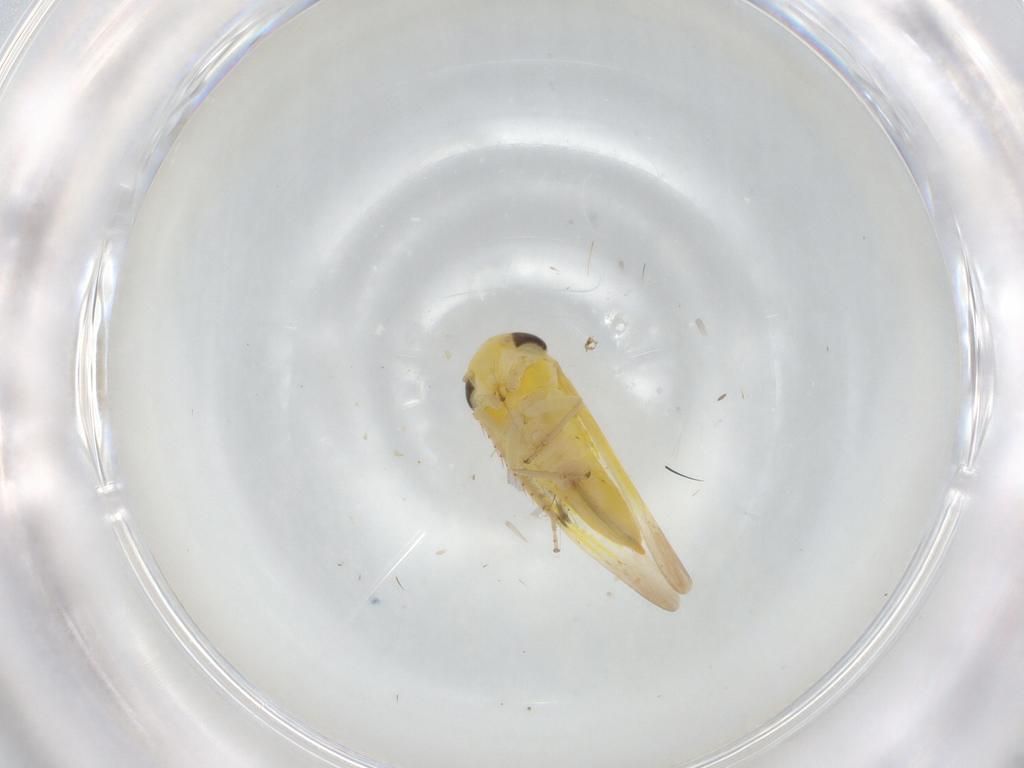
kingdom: Animalia
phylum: Arthropoda
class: Insecta
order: Hemiptera
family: Cicadellidae
